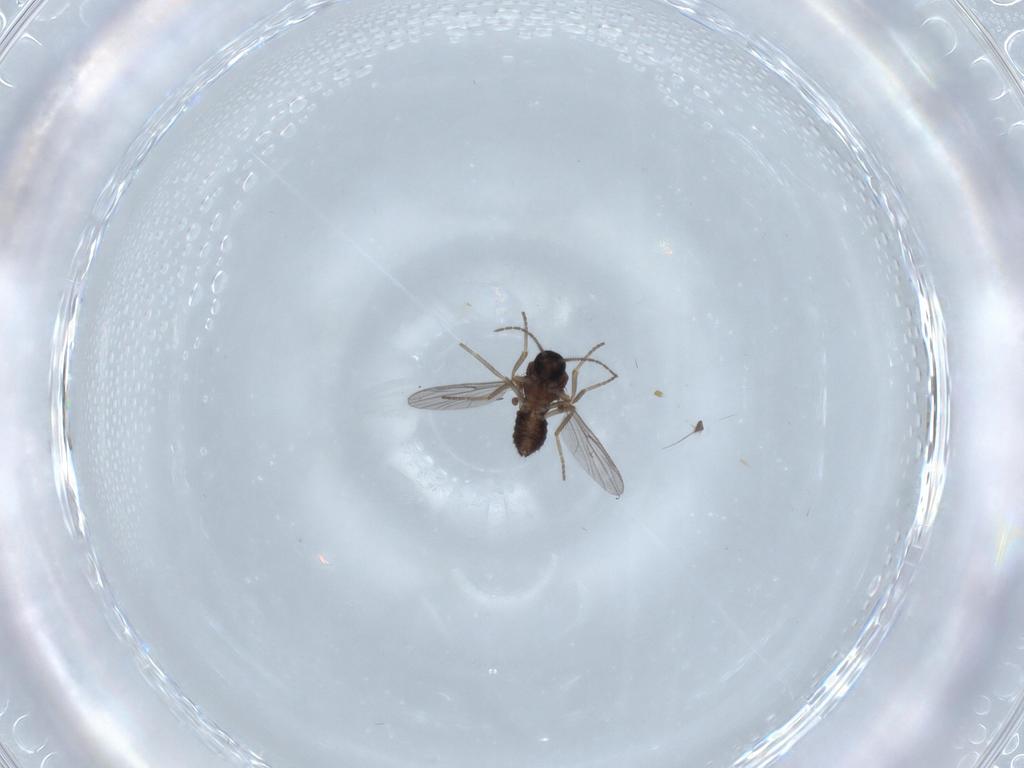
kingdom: Animalia
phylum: Arthropoda
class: Insecta
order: Diptera
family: Ceratopogonidae
